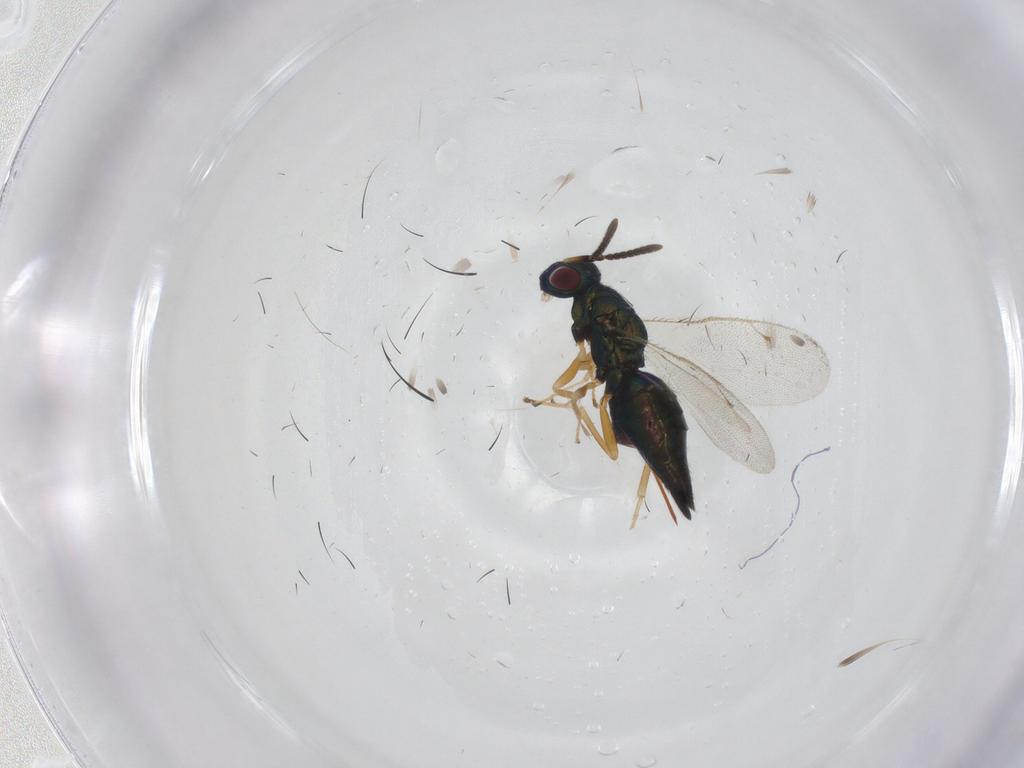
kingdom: Animalia
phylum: Arthropoda
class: Insecta
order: Hymenoptera
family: Pteromalidae
